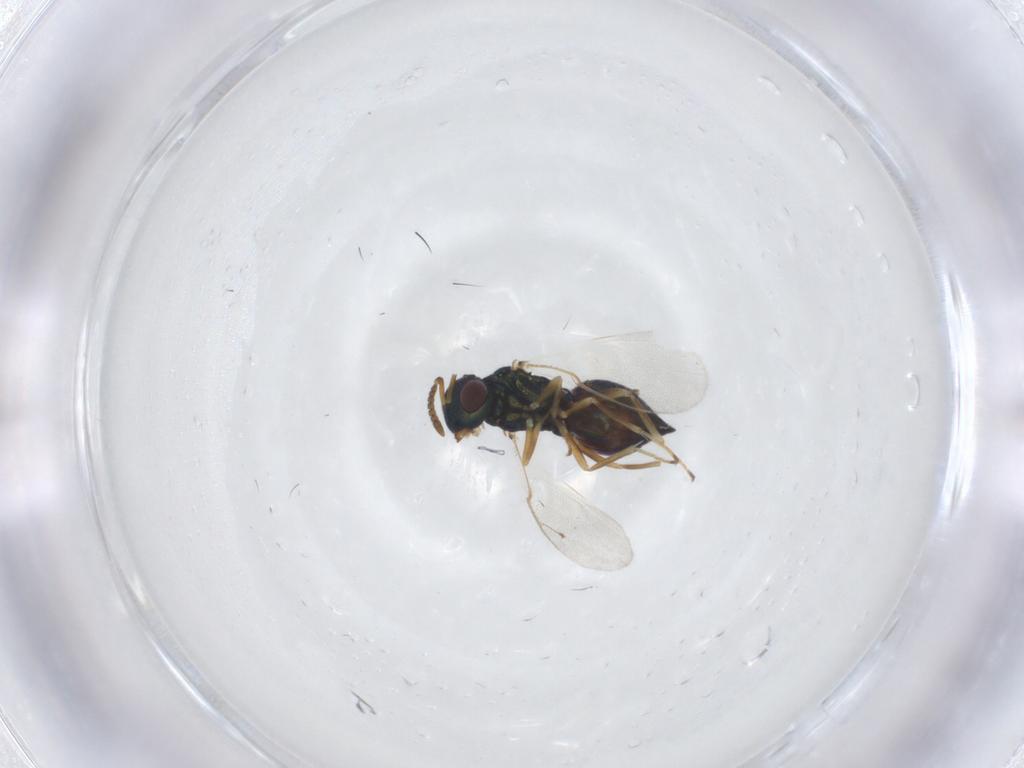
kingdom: Animalia
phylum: Arthropoda
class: Insecta
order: Hymenoptera
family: Pteromalidae
